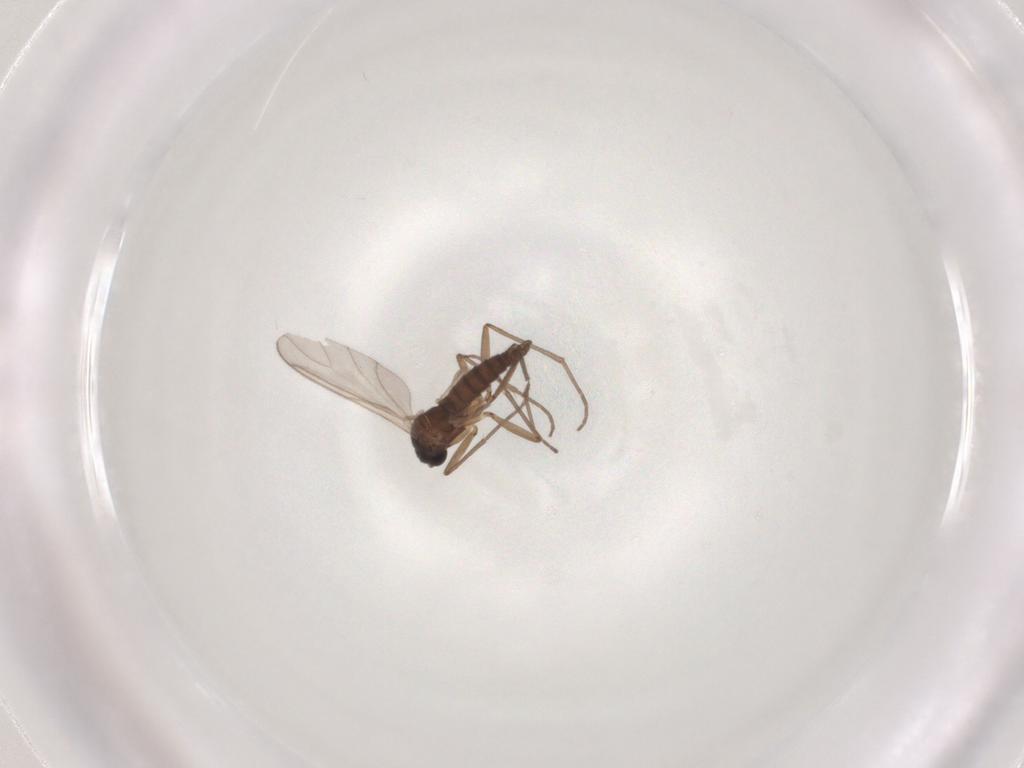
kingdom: Animalia
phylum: Arthropoda
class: Insecta
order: Diptera
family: Sciaridae
